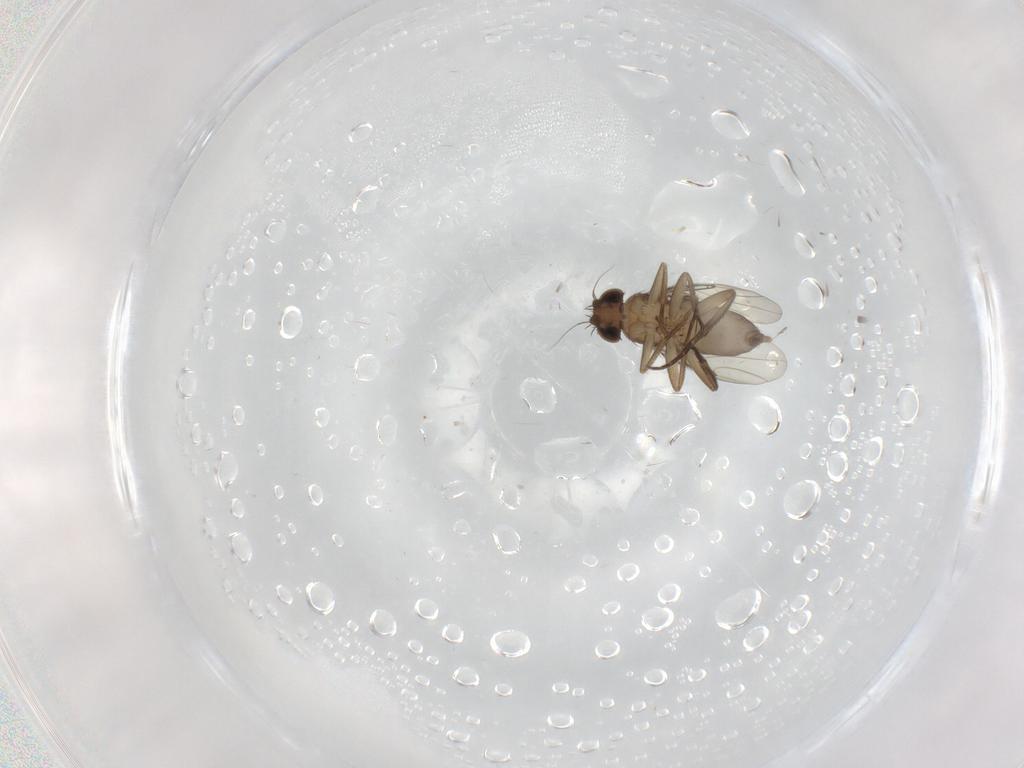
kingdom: Animalia
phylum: Arthropoda
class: Insecta
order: Diptera
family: Phoridae
